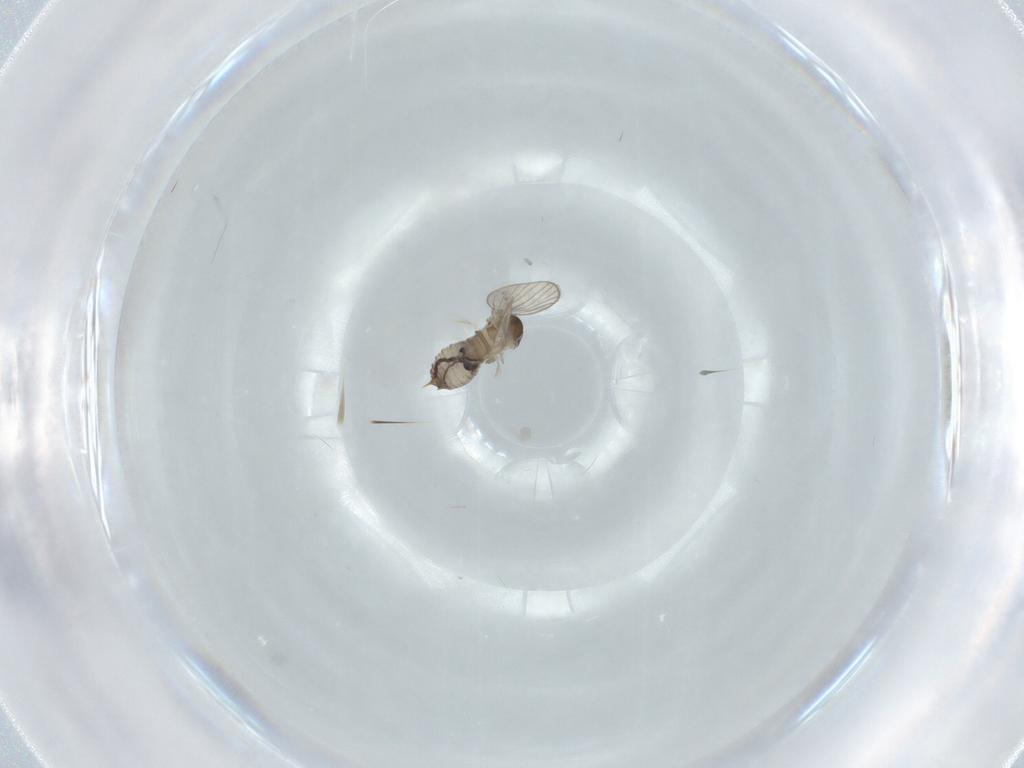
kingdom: Animalia
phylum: Arthropoda
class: Insecta
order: Diptera
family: Psychodidae
